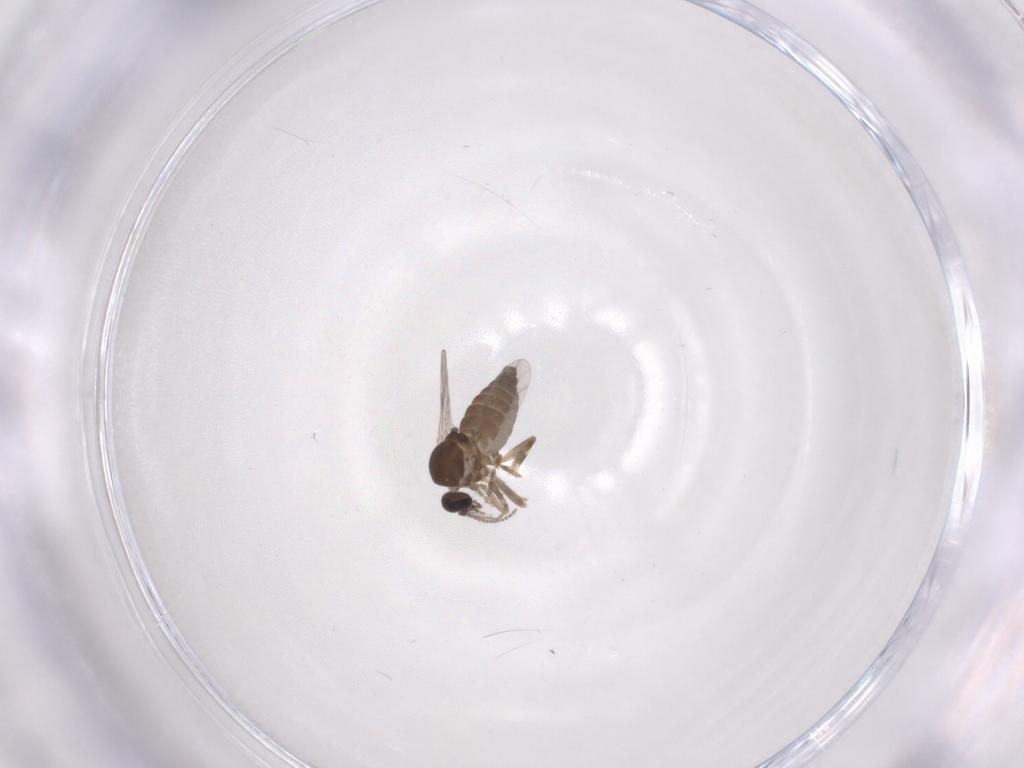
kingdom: Animalia
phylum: Arthropoda
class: Insecta
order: Diptera
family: Ceratopogonidae
